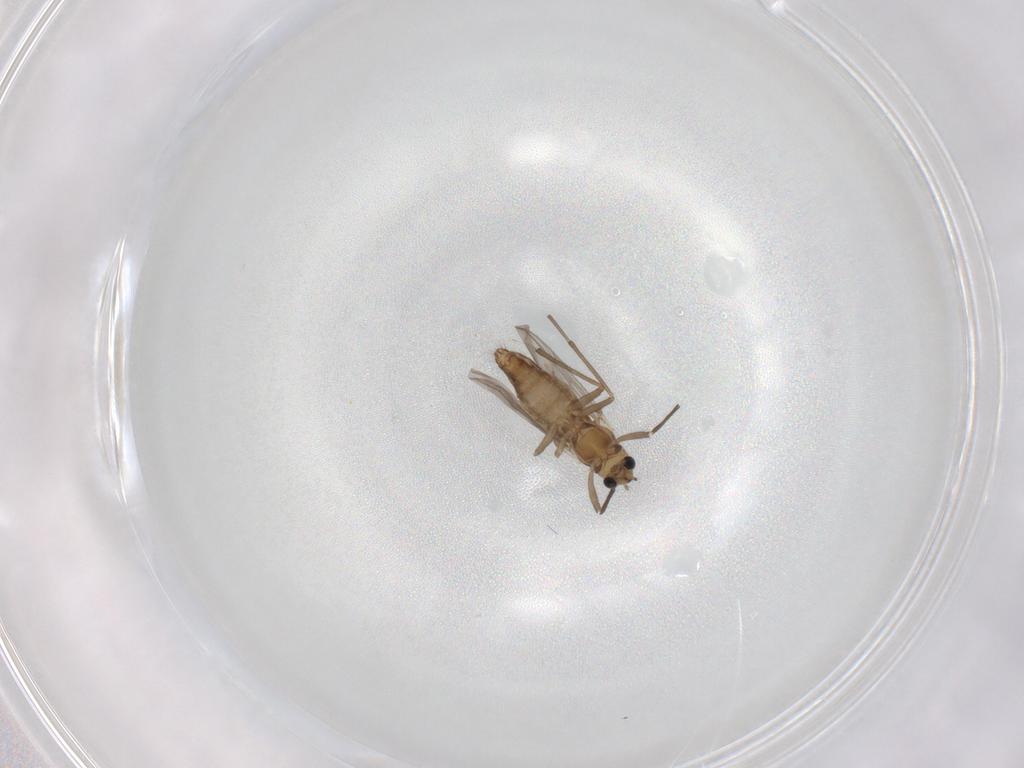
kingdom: Animalia
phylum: Arthropoda
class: Insecta
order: Diptera
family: Chironomidae
